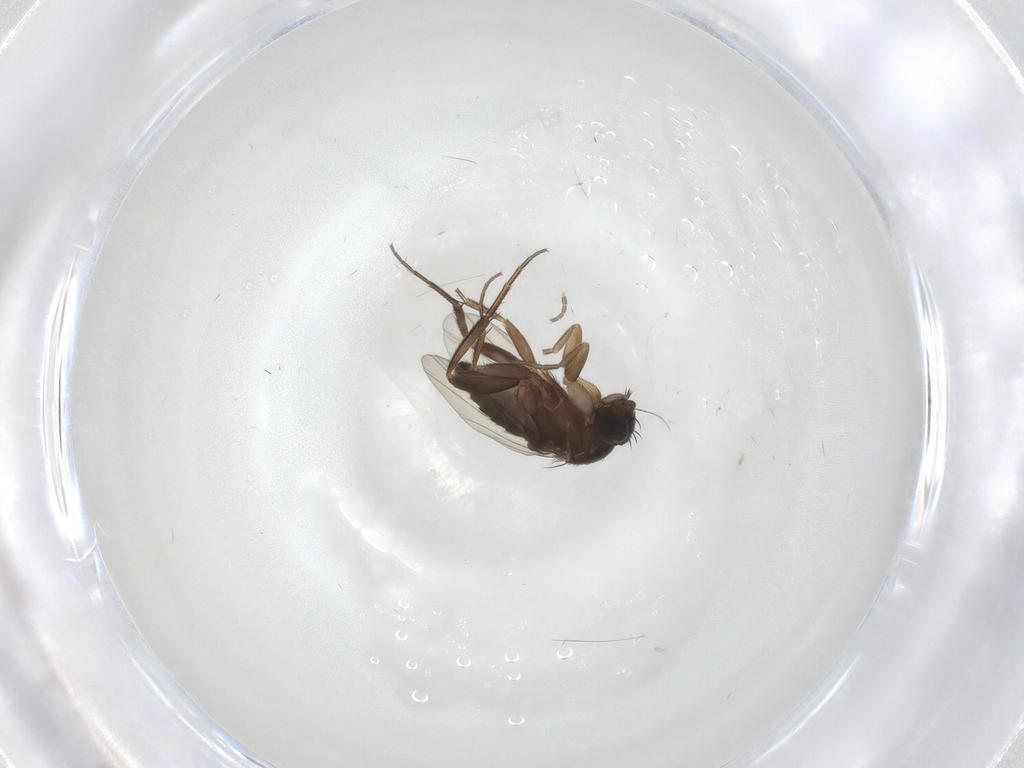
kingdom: Animalia
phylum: Arthropoda
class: Insecta
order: Diptera
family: Phoridae
